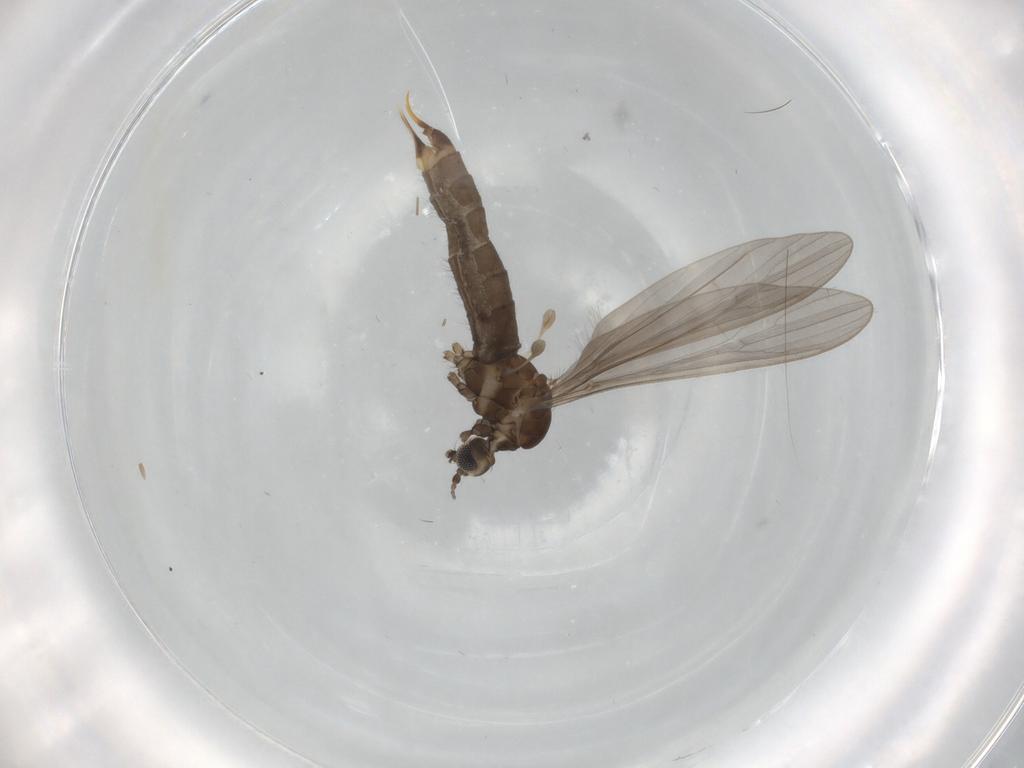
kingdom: Animalia
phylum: Arthropoda
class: Insecta
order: Diptera
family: Limoniidae
